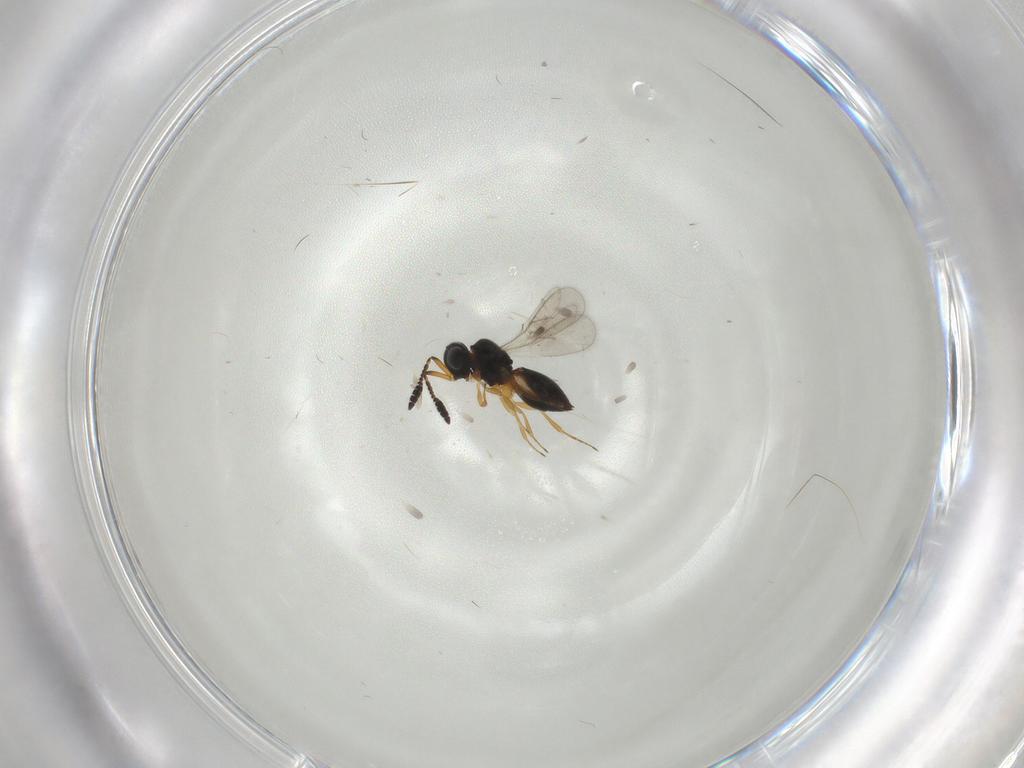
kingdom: Animalia
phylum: Arthropoda
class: Insecta
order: Hymenoptera
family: Scelionidae
